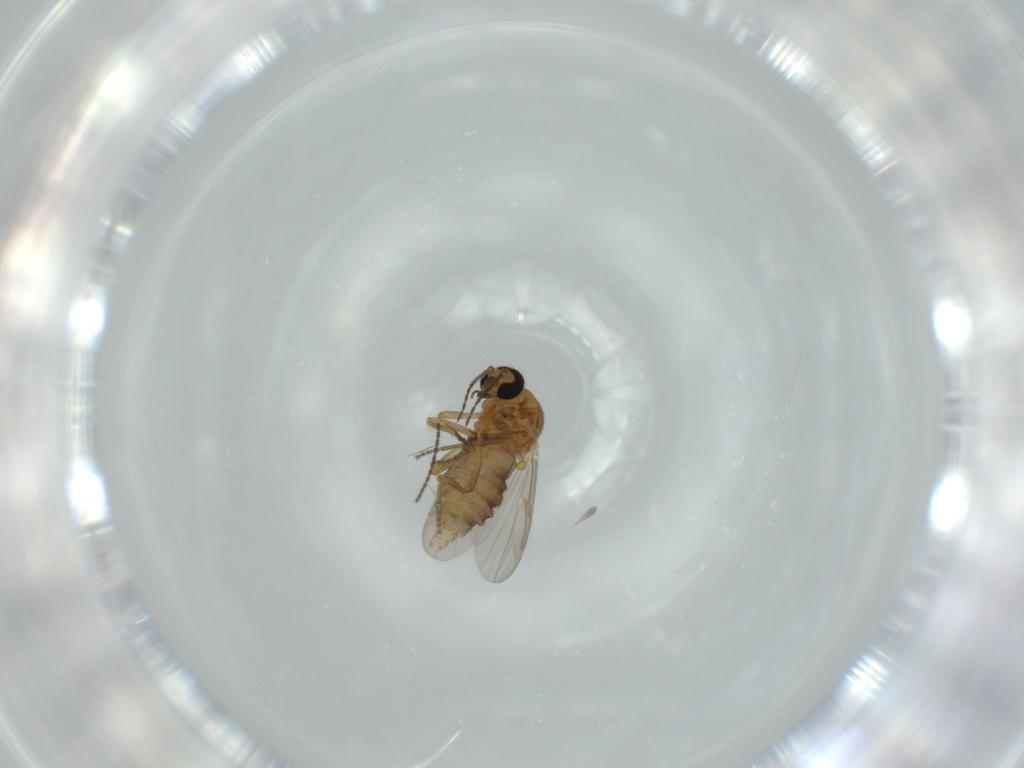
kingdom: Animalia
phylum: Arthropoda
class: Insecta
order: Diptera
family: Ceratopogonidae
